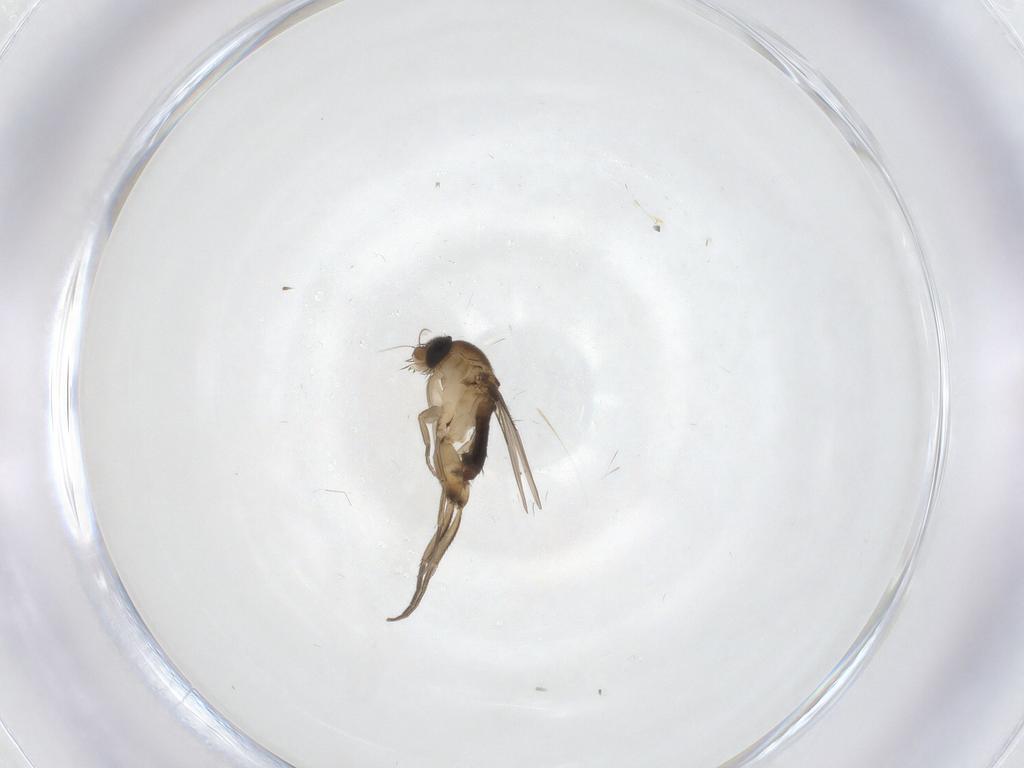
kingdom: Animalia
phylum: Arthropoda
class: Insecta
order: Diptera
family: Phoridae
